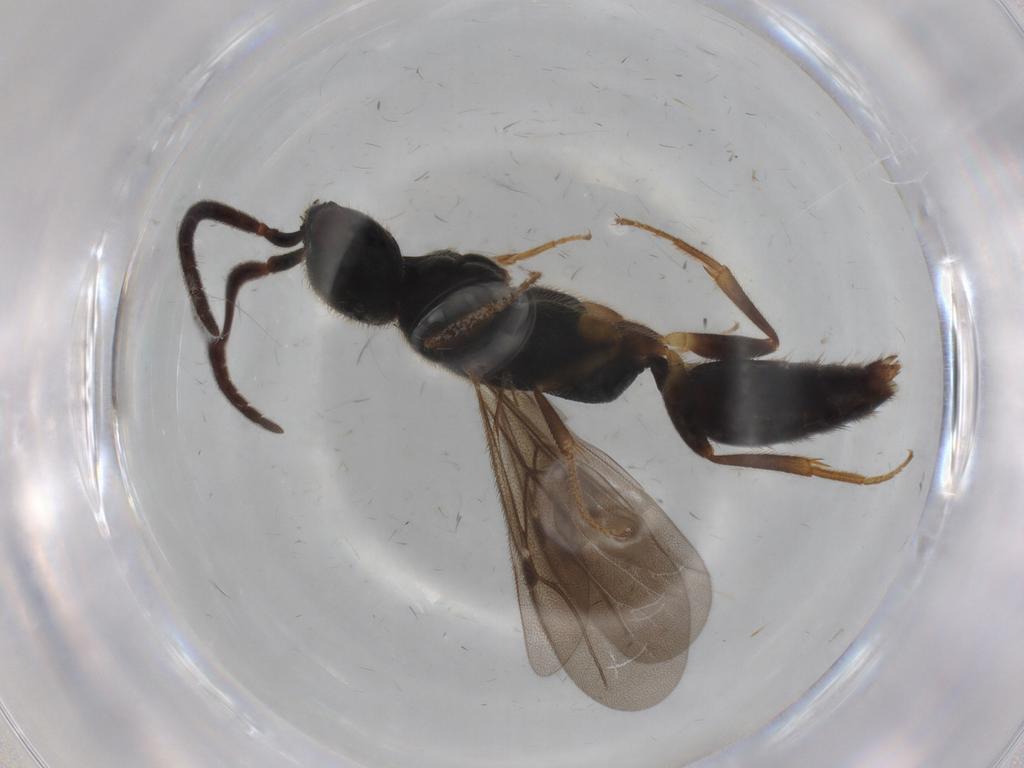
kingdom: Animalia
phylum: Arthropoda
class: Insecta
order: Hymenoptera
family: Bethylidae
